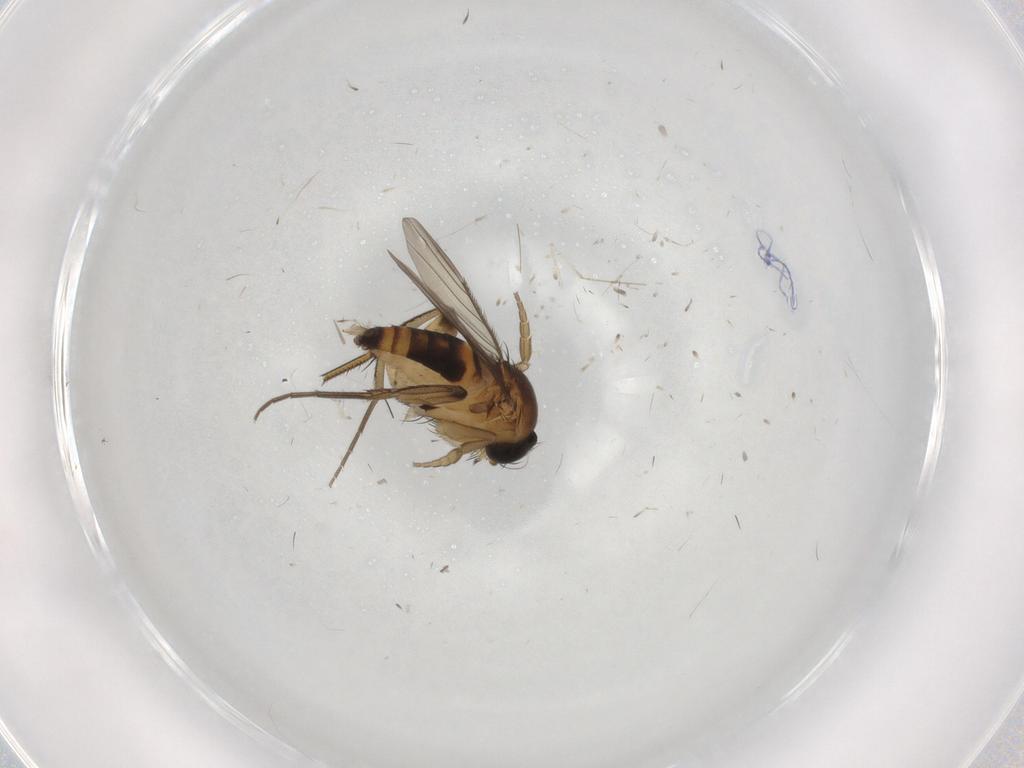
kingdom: Animalia
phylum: Arthropoda
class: Insecta
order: Diptera
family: Phoridae
